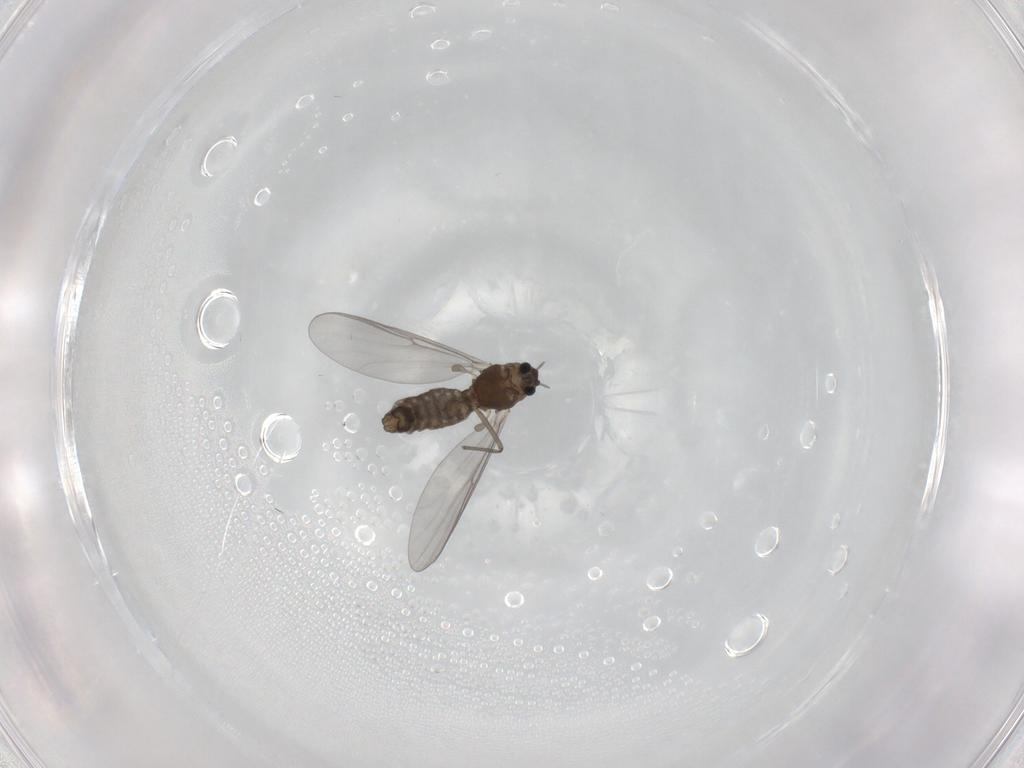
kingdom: Animalia
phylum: Arthropoda
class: Insecta
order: Diptera
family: Chironomidae
